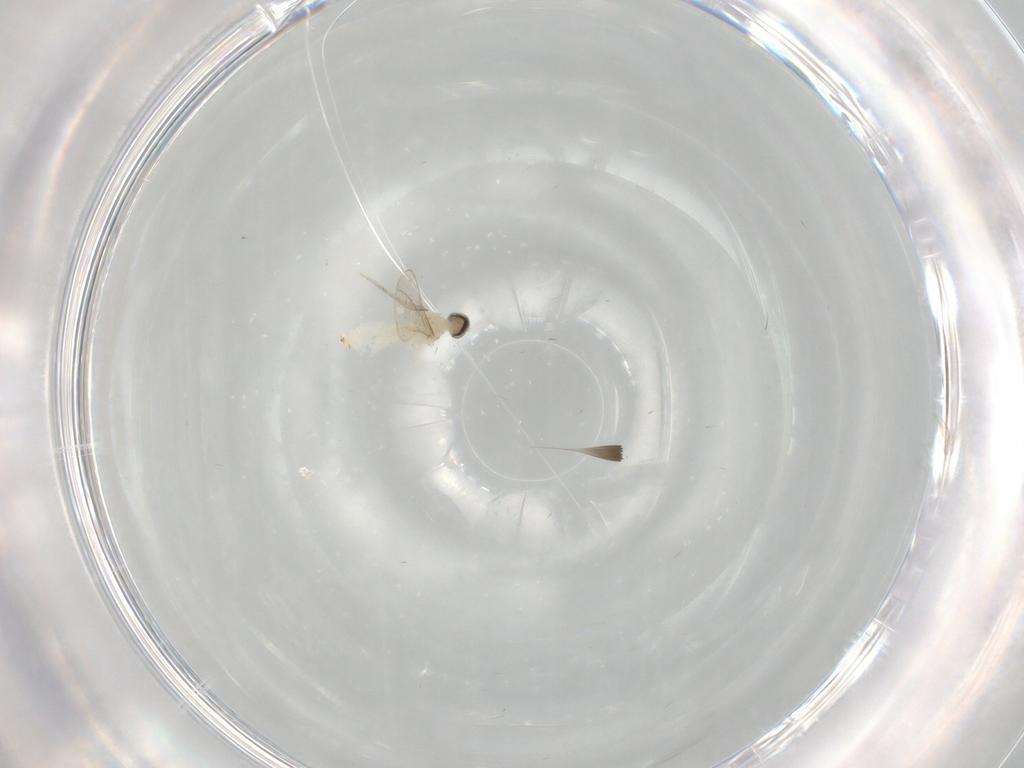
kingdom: Animalia
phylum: Arthropoda
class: Insecta
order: Diptera
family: Cecidomyiidae
